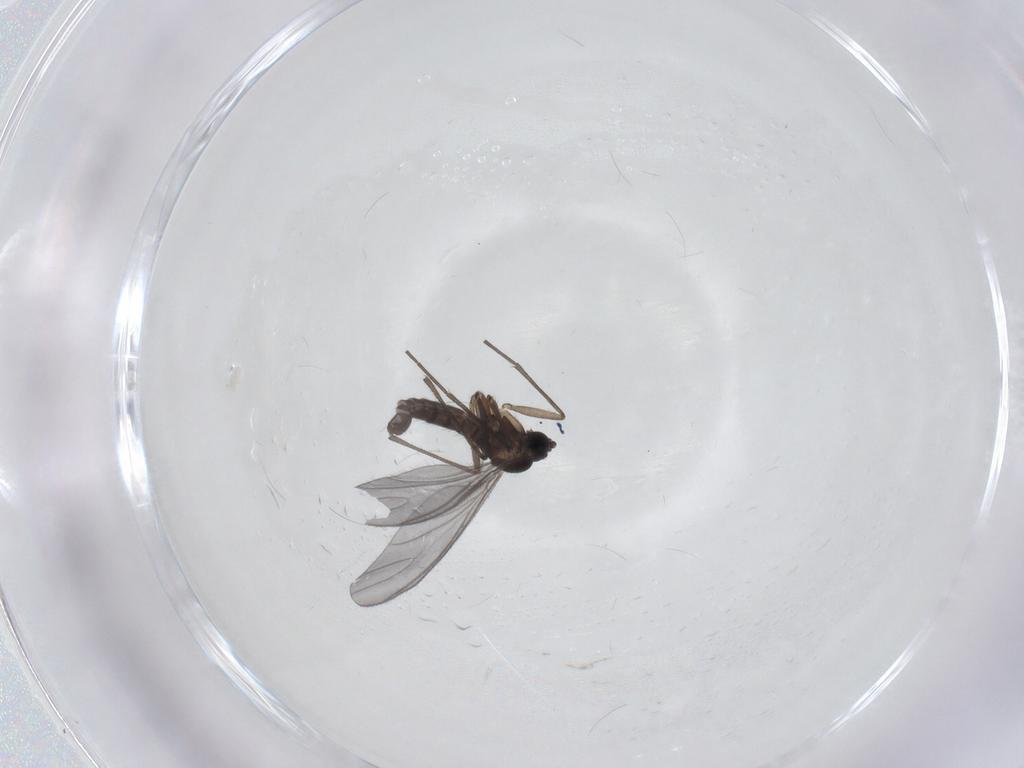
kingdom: Animalia
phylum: Arthropoda
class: Insecta
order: Diptera
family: Sciaridae
